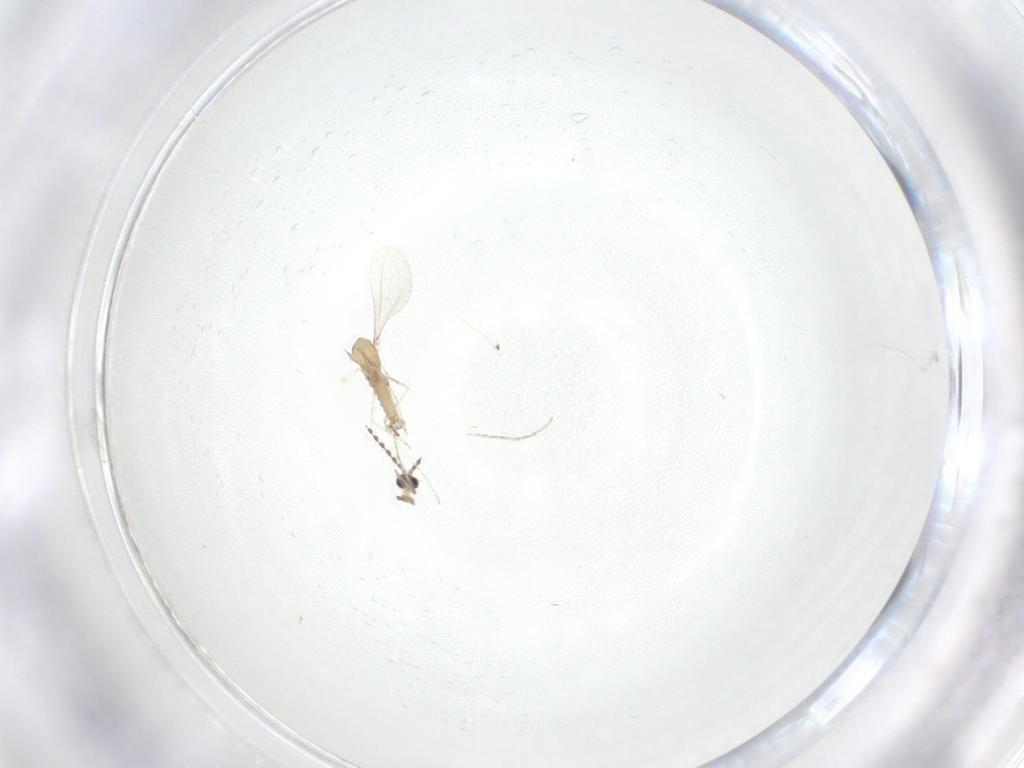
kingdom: Animalia
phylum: Arthropoda
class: Insecta
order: Diptera
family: Cecidomyiidae
